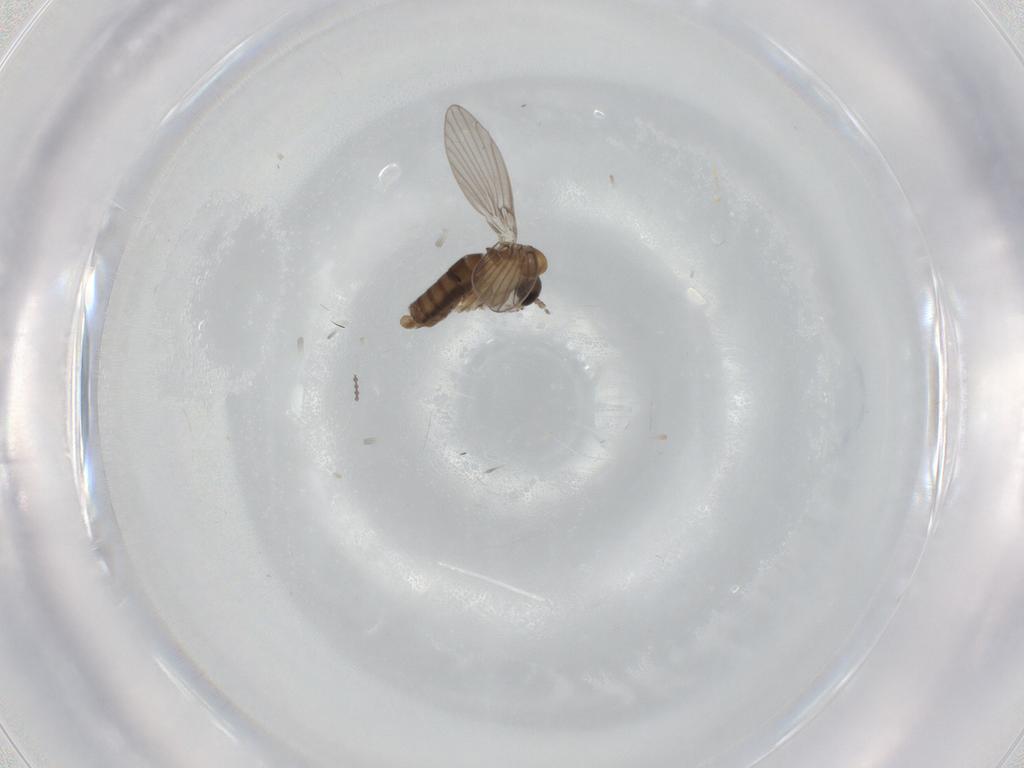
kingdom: Animalia
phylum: Arthropoda
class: Insecta
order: Diptera
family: Psychodidae
